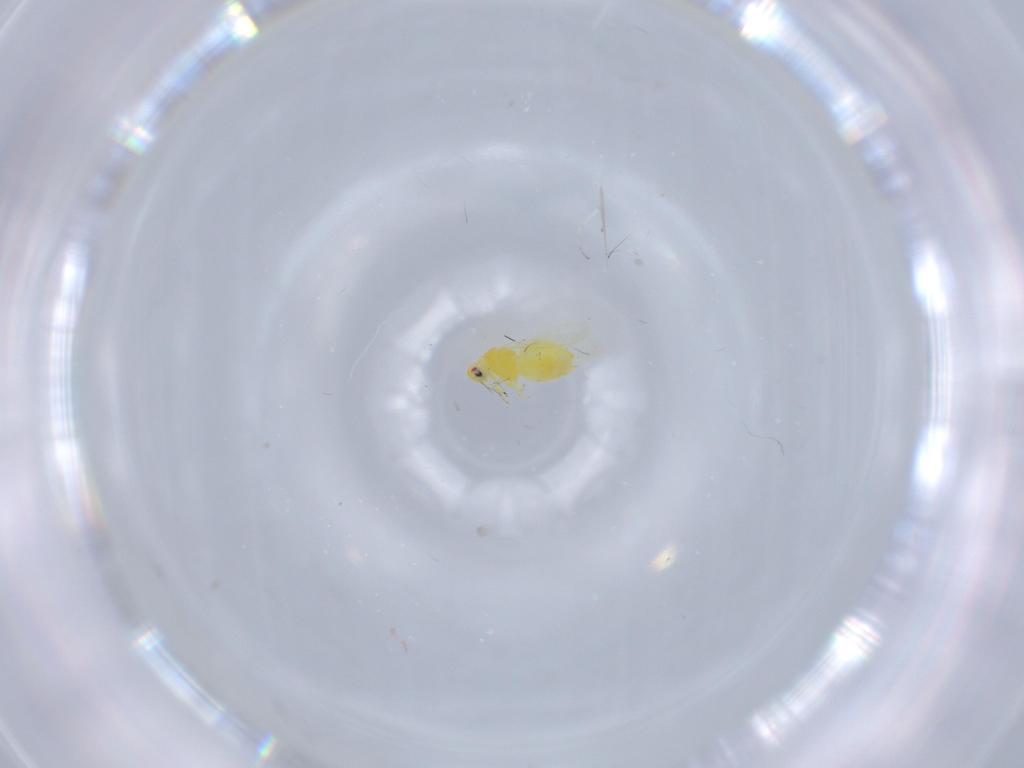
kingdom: Animalia
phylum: Arthropoda
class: Insecta
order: Hemiptera
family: Aleyrodidae
